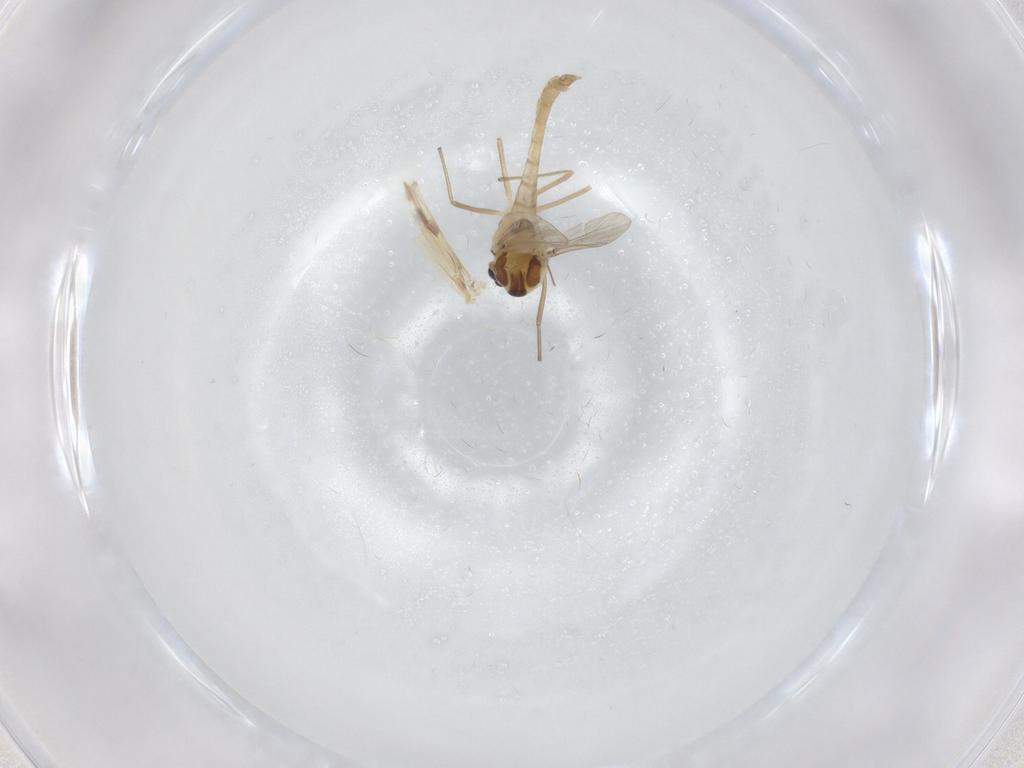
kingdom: Animalia
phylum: Arthropoda
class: Insecta
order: Diptera
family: Chironomidae
